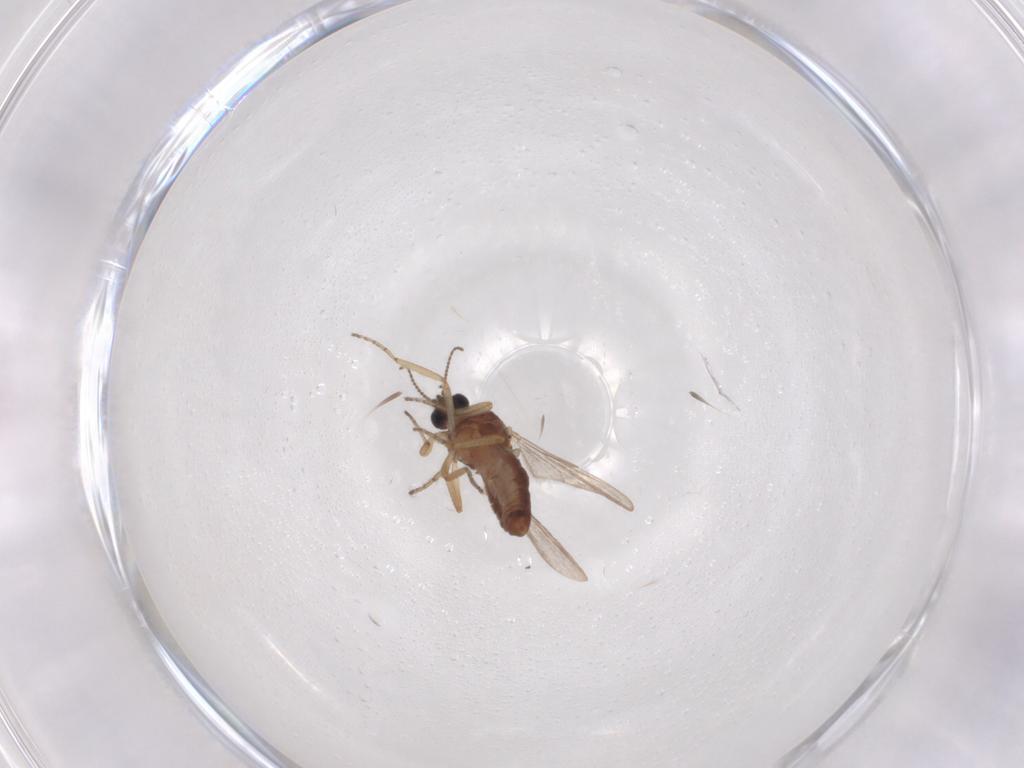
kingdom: Animalia
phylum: Arthropoda
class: Insecta
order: Diptera
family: Ceratopogonidae
